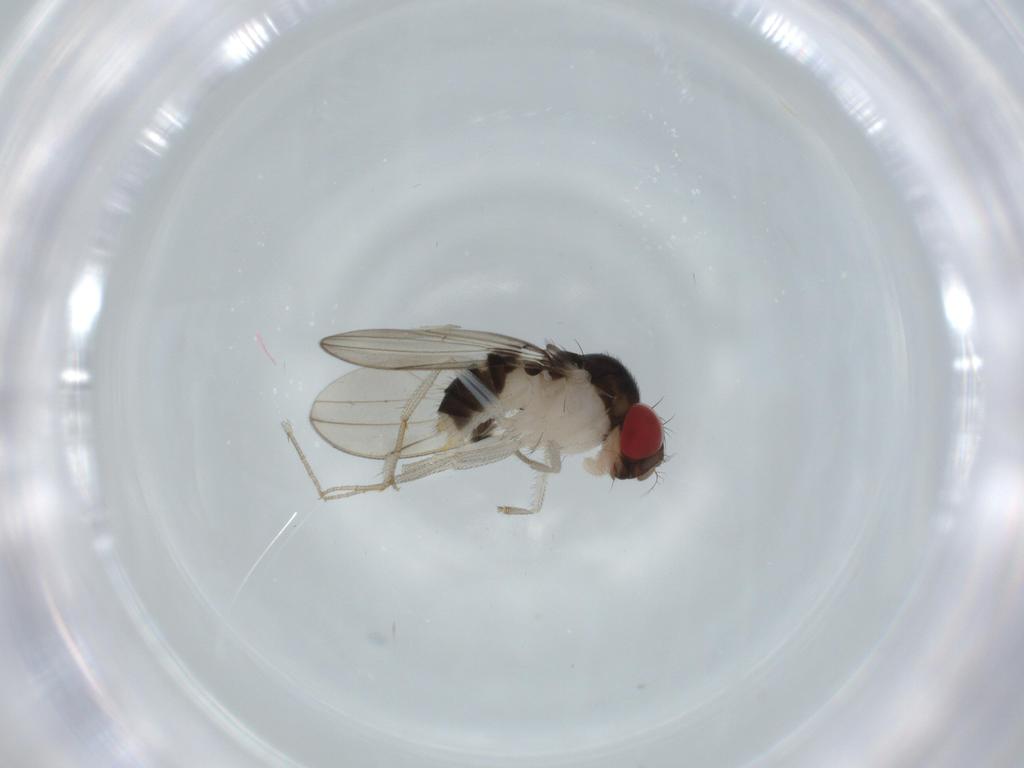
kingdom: Animalia
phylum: Arthropoda
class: Insecta
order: Diptera
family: Drosophilidae
